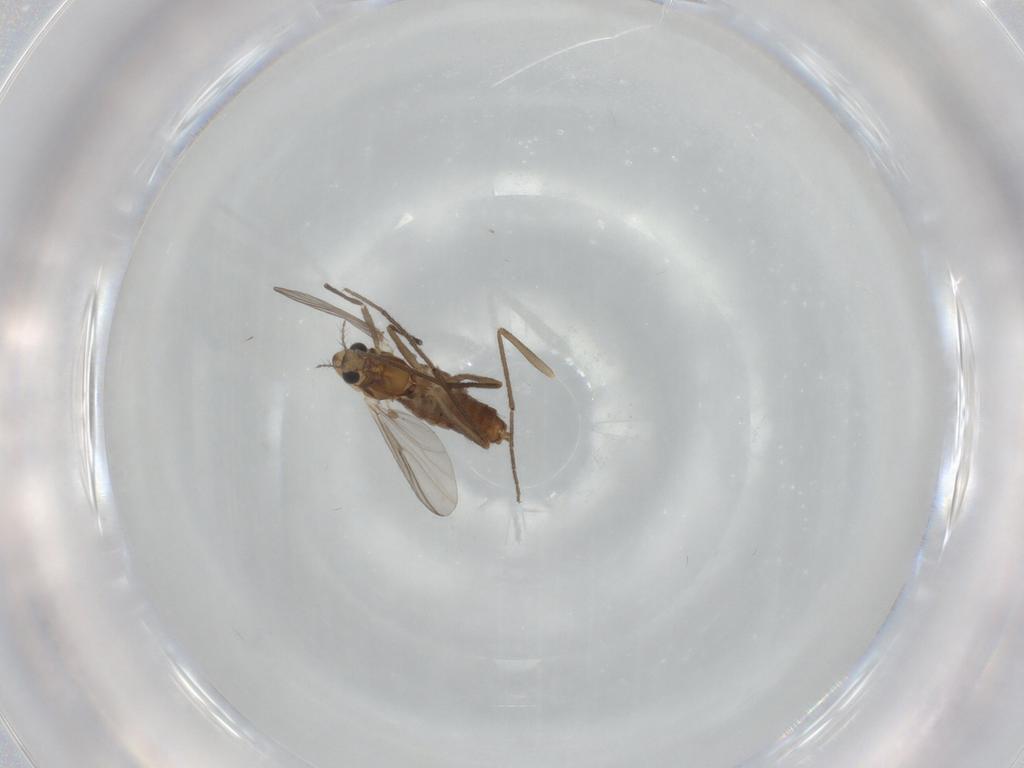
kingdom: Animalia
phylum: Arthropoda
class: Insecta
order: Diptera
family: Chironomidae
